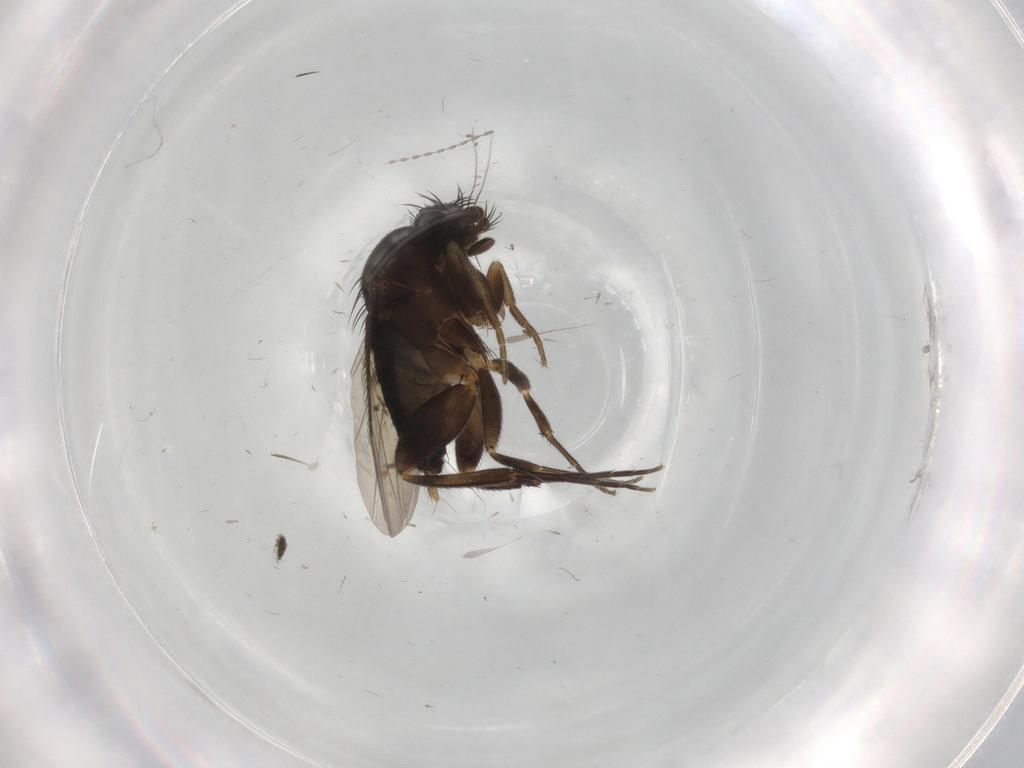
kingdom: Animalia
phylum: Arthropoda
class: Insecta
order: Diptera
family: Phoridae
